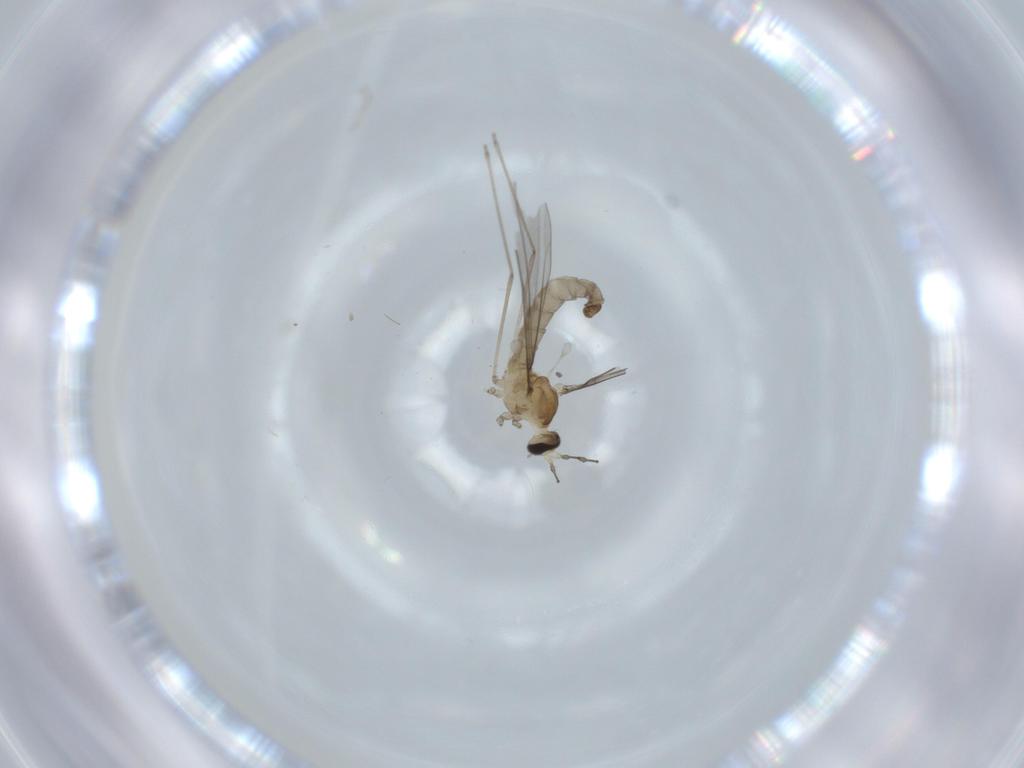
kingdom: Animalia
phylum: Arthropoda
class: Insecta
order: Diptera
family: Cecidomyiidae
